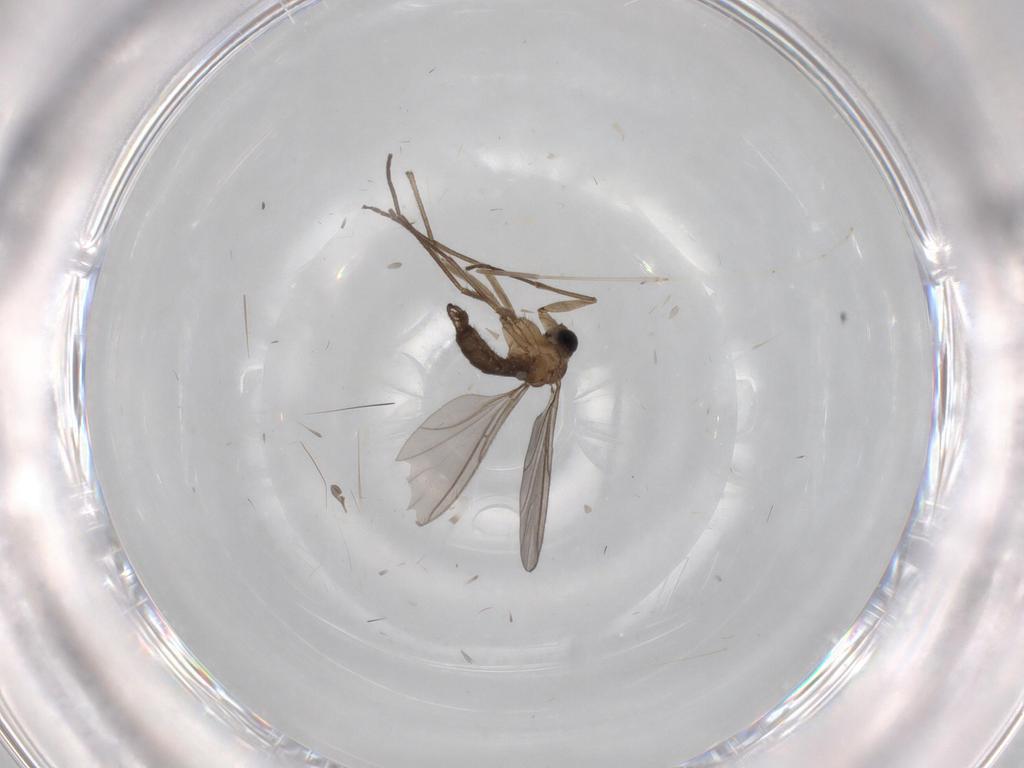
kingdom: Animalia
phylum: Arthropoda
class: Insecta
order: Diptera
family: Sciaridae
